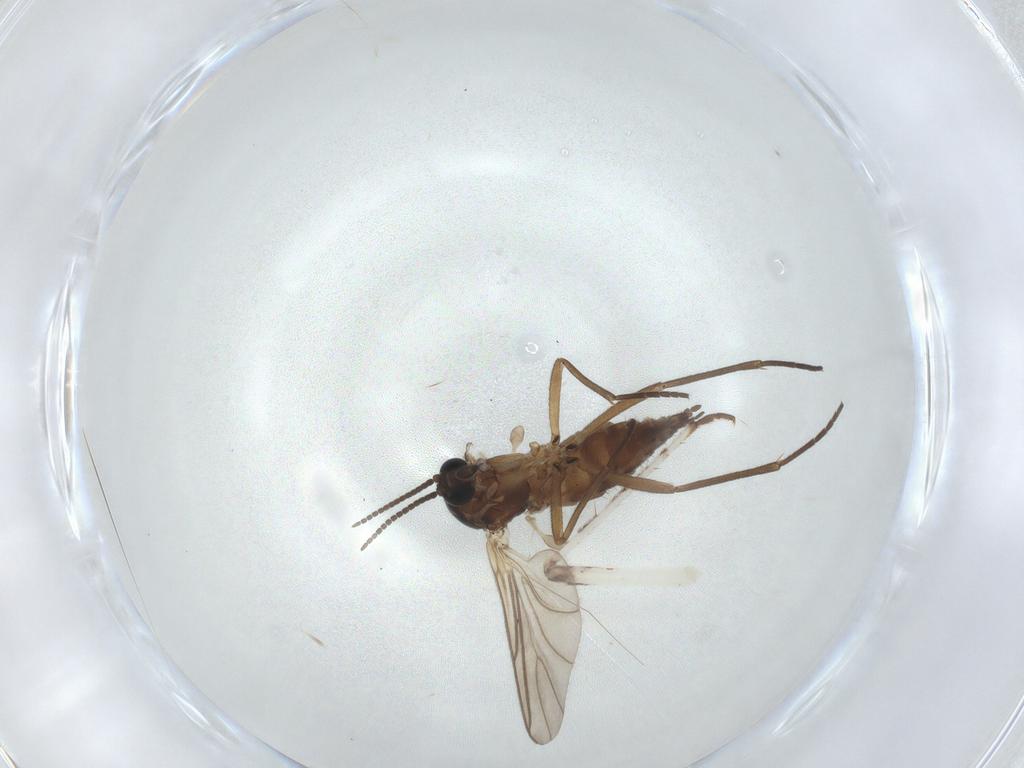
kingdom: Animalia
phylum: Arthropoda
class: Insecta
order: Diptera
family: Sciaridae
